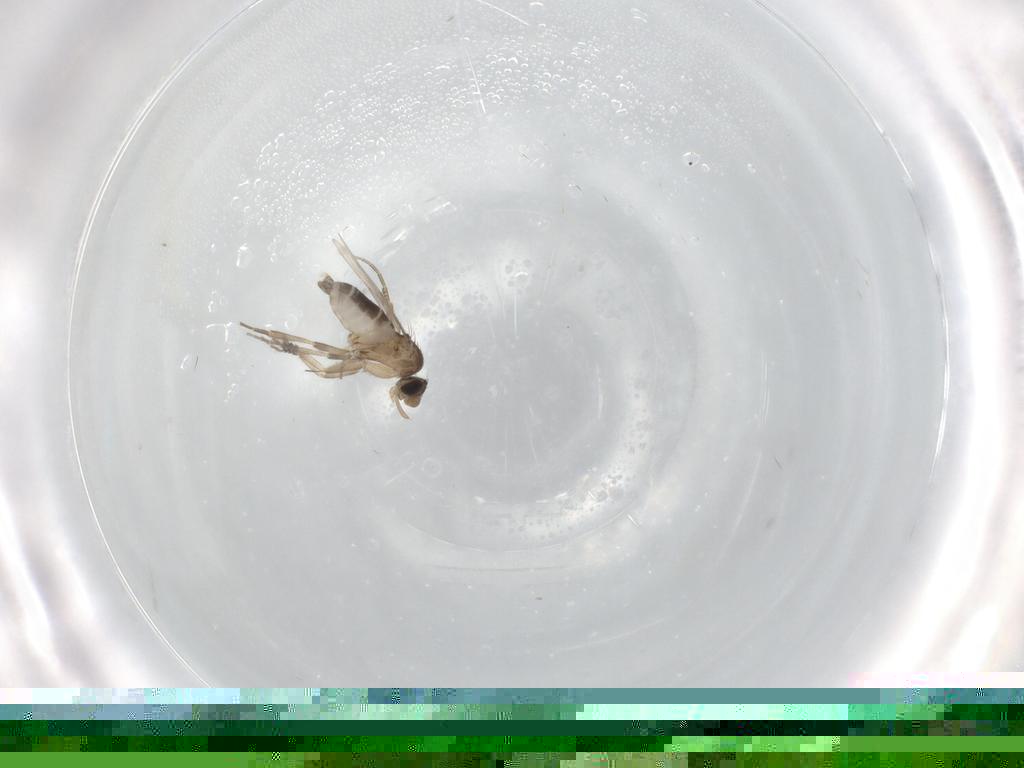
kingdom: Animalia
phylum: Arthropoda
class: Insecta
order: Diptera
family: Phoridae
